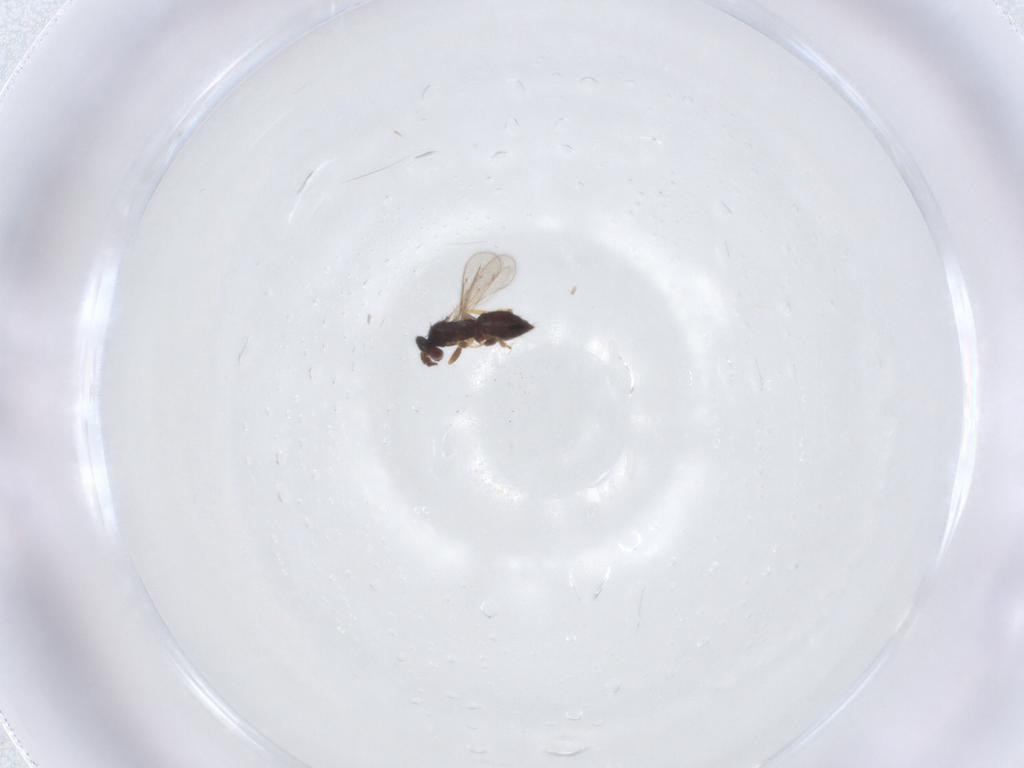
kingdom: Animalia
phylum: Arthropoda
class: Insecta
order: Hymenoptera
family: Eulophidae
